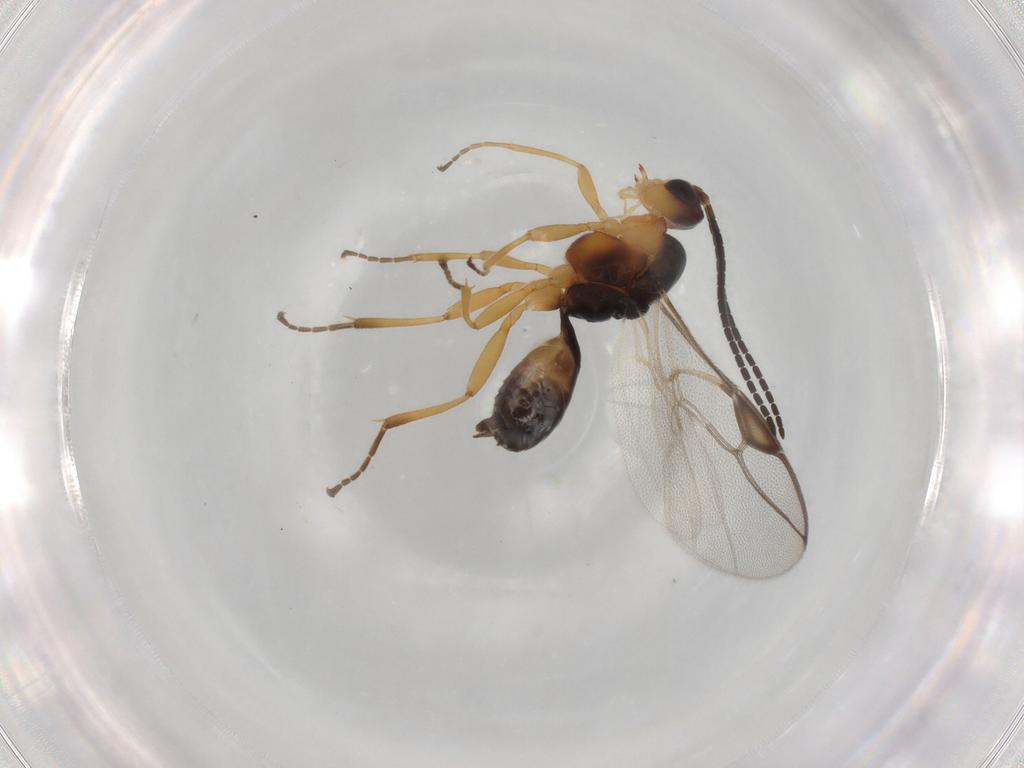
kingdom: Animalia
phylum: Arthropoda
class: Insecta
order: Hymenoptera
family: Braconidae
